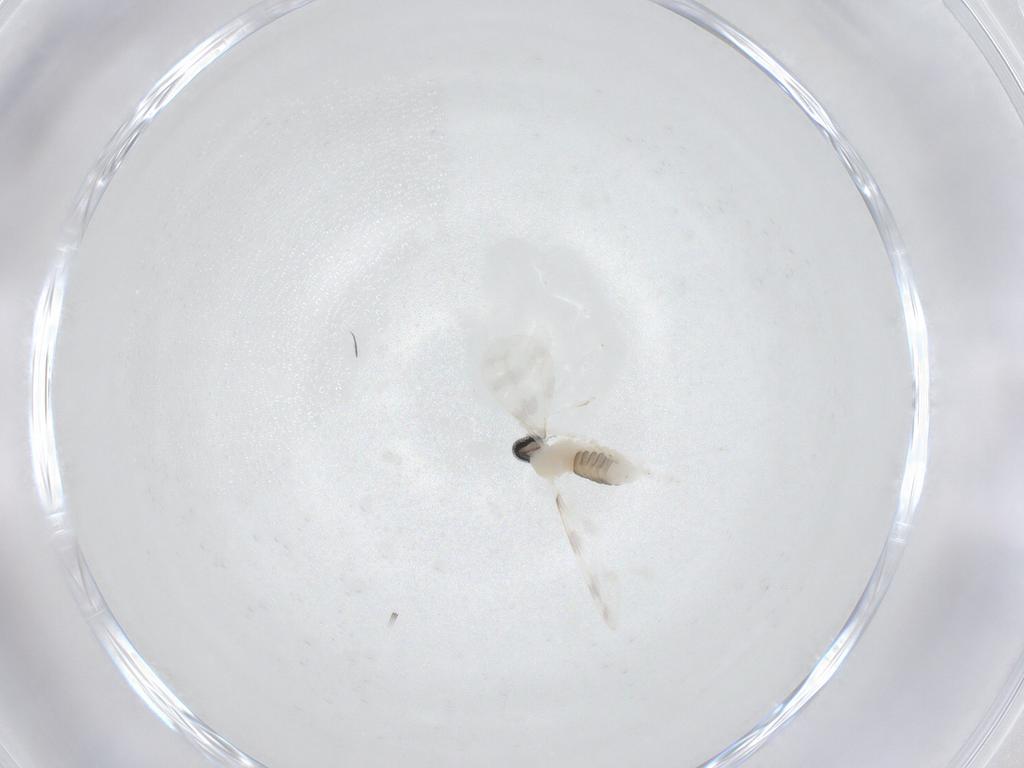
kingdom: Animalia
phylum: Arthropoda
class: Insecta
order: Diptera
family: Cecidomyiidae
